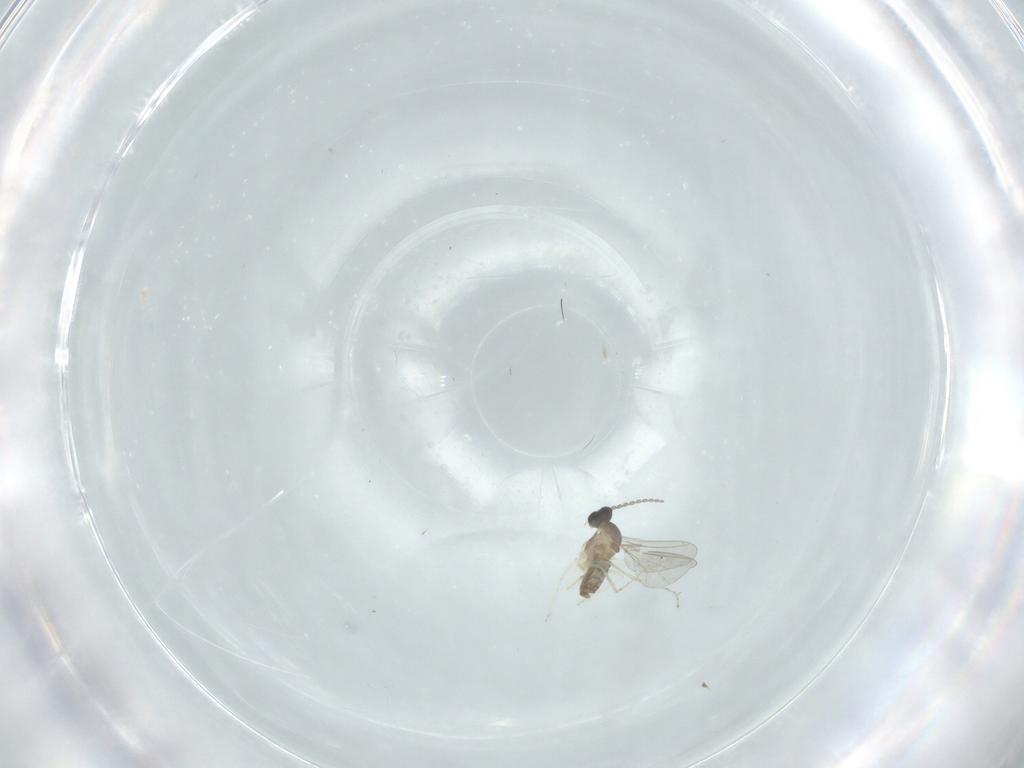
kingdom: Animalia
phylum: Arthropoda
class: Insecta
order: Diptera
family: Cecidomyiidae
